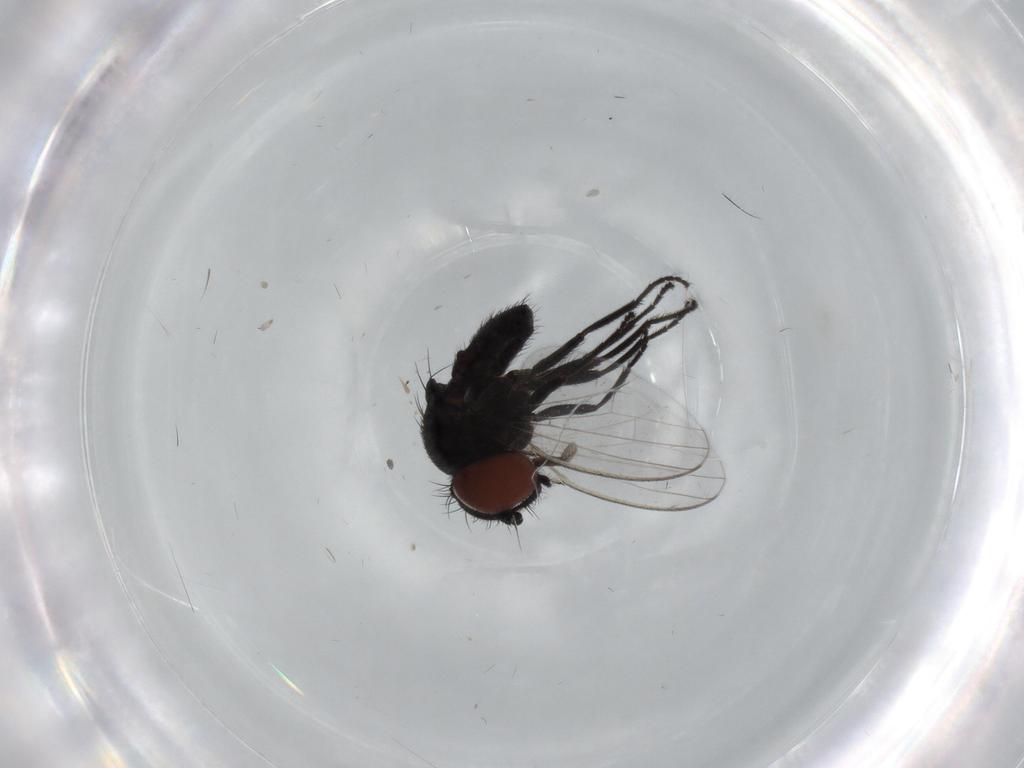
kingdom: Animalia
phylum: Arthropoda
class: Insecta
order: Diptera
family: Milichiidae
